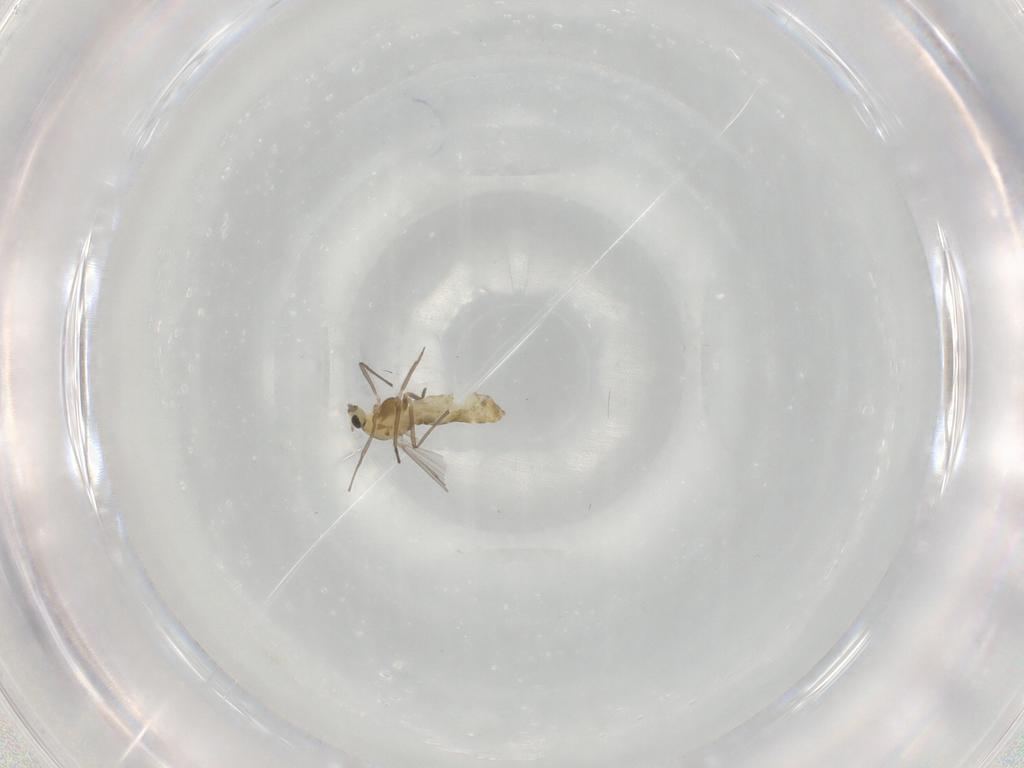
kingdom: Animalia
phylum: Arthropoda
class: Insecta
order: Diptera
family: Chironomidae
